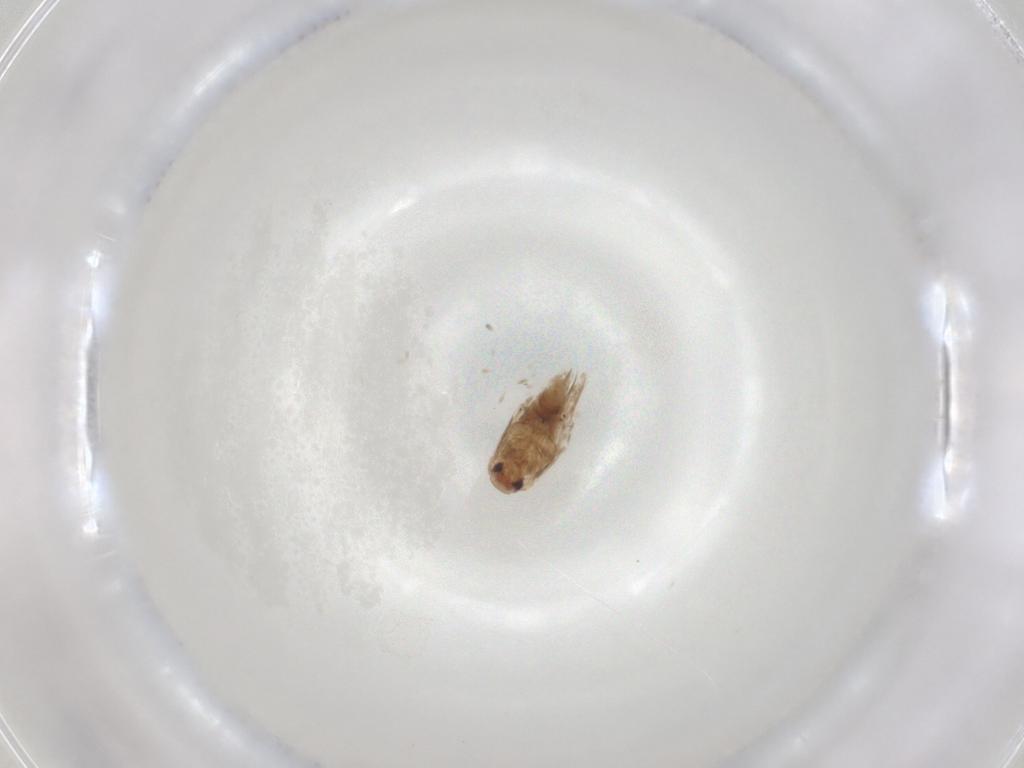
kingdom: Animalia
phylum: Arthropoda
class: Insecta
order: Lepidoptera
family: Nymphalidae
